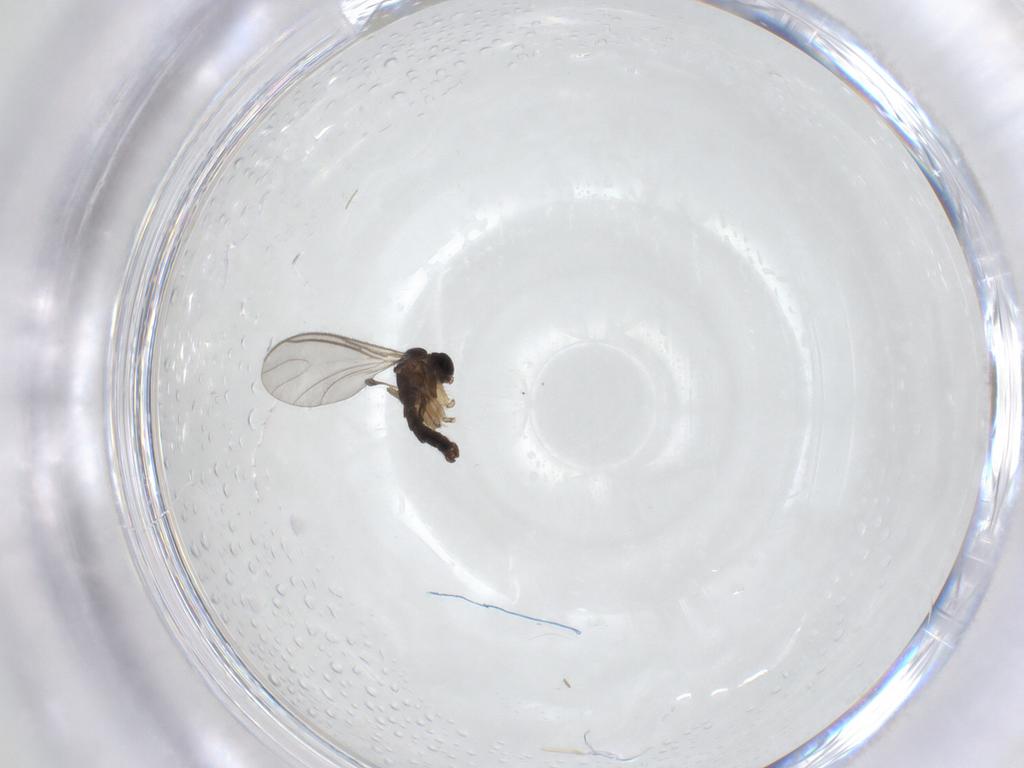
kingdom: Animalia
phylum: Arthropoda
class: Insecta
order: Diptera
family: Sciaridae
